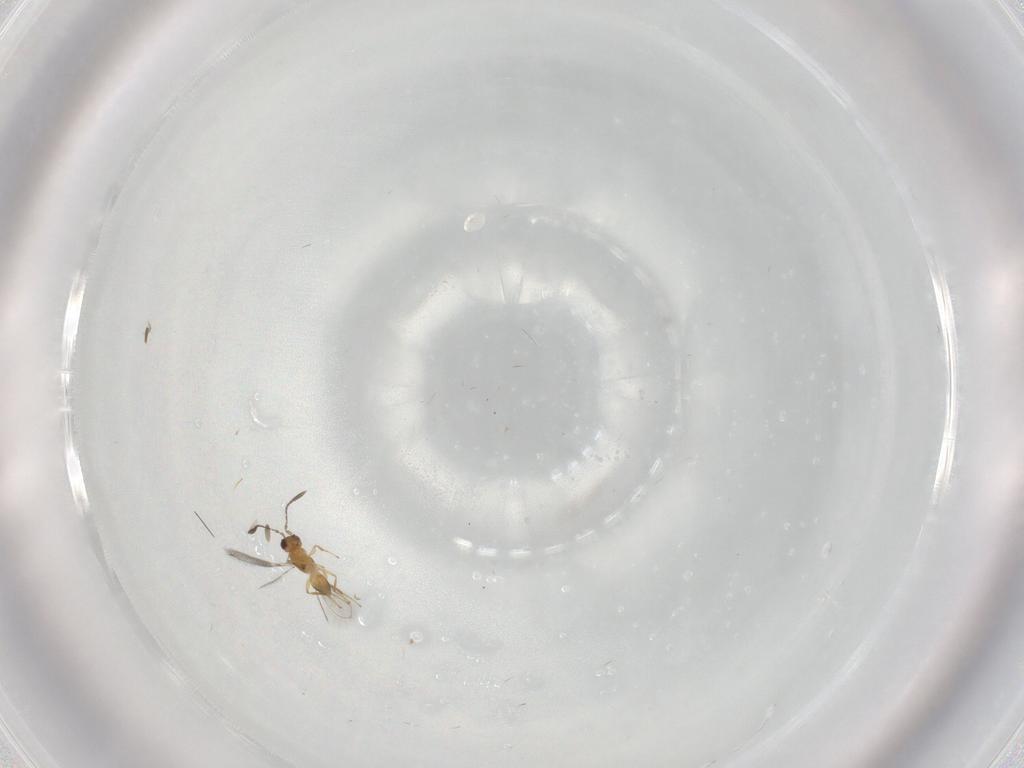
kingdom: Animalia
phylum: Arthropoda
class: Insecta
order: Hymenoptera
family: Mymaridae
